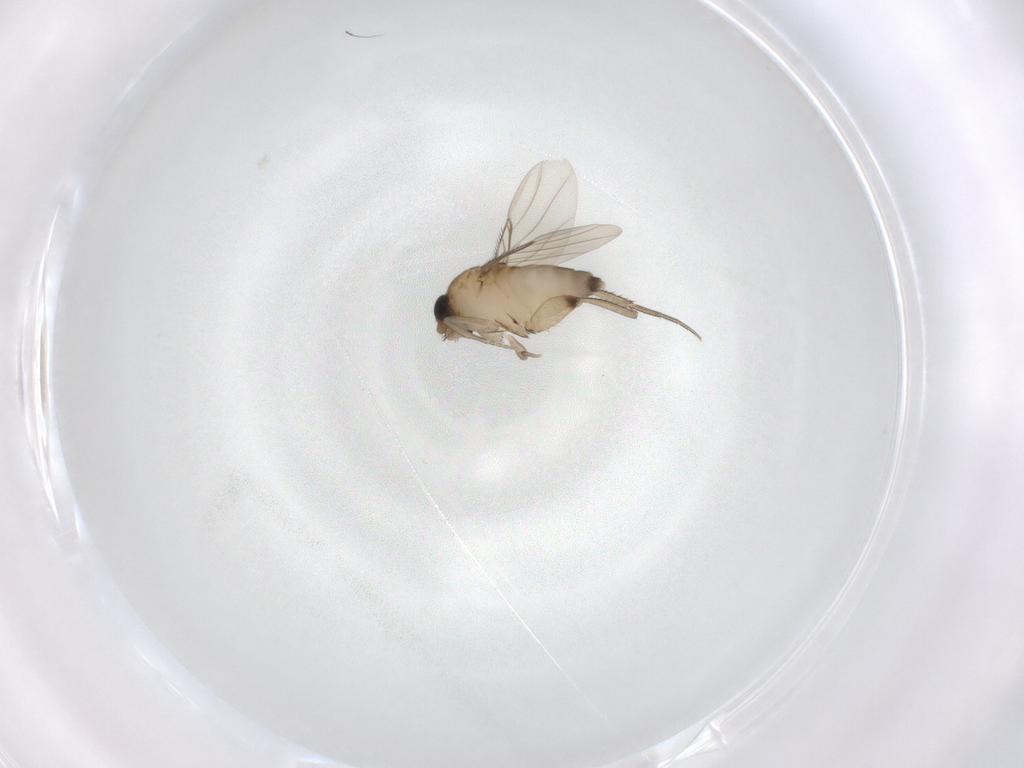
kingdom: Animalia
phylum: Arthropoda
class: Insecta
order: Diptera
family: Phoridae
